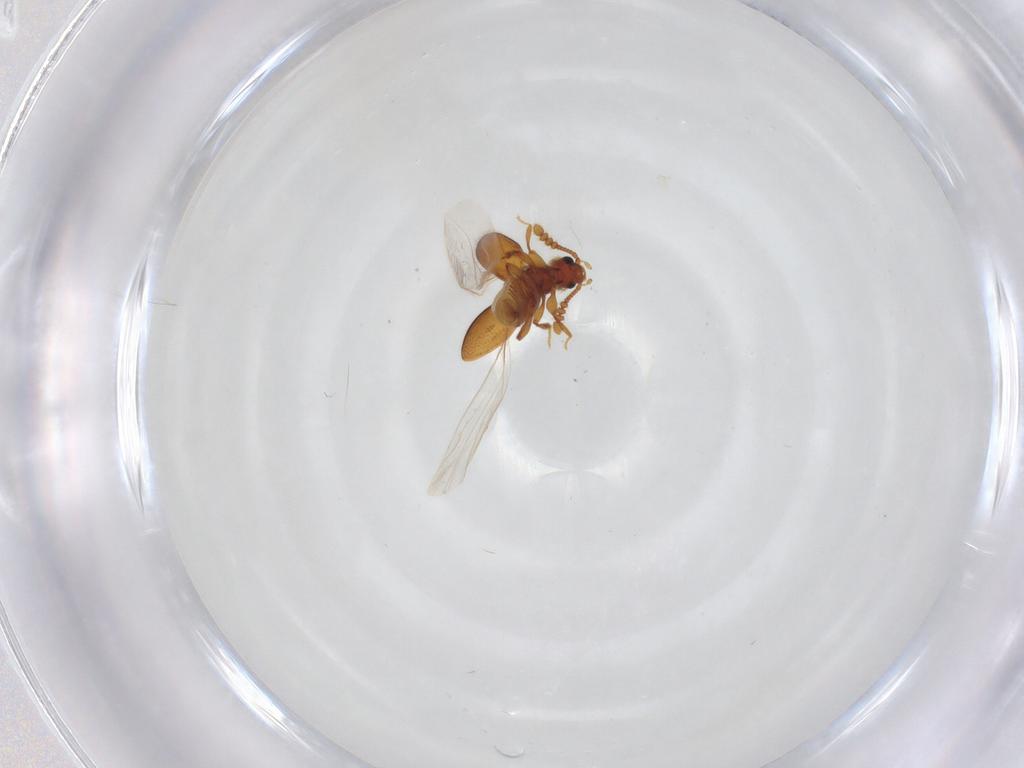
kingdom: Animalia
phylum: Arthropoda
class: Insecta
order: Coleoptera
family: Staphylinidae
